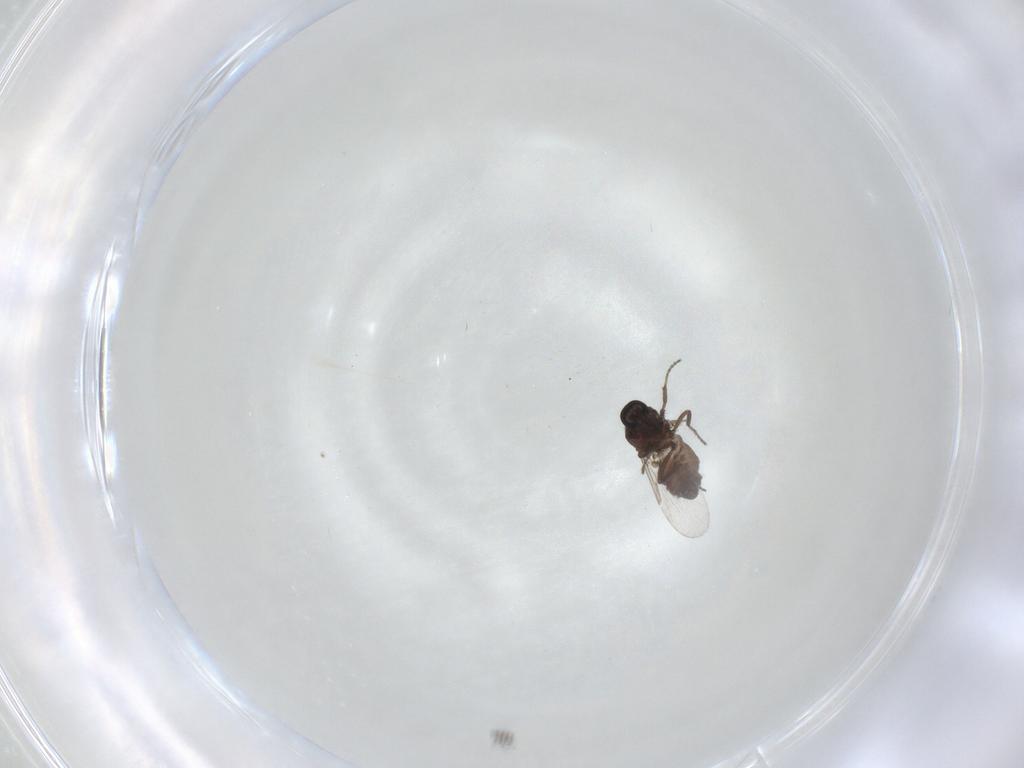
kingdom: Animalia
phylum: Arthropoda
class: Insecta
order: Diptera
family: Ceratopogonidae
